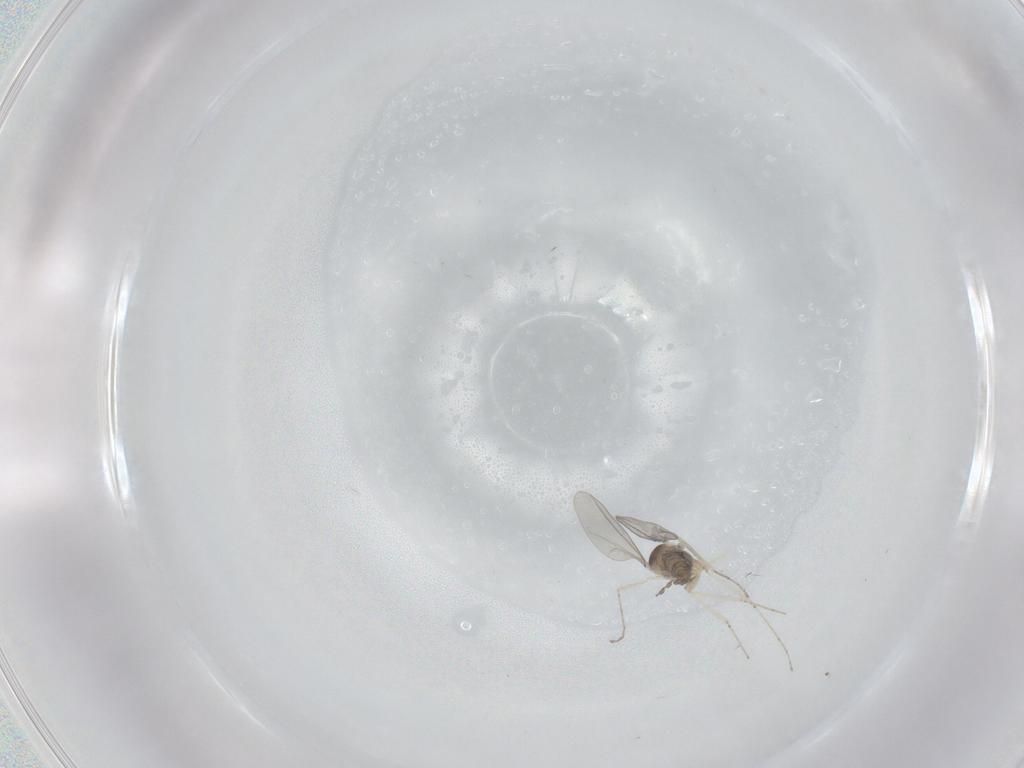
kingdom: Animalia
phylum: Arthropoda
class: Insecta
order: Diptera
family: Cecidomyiidae
